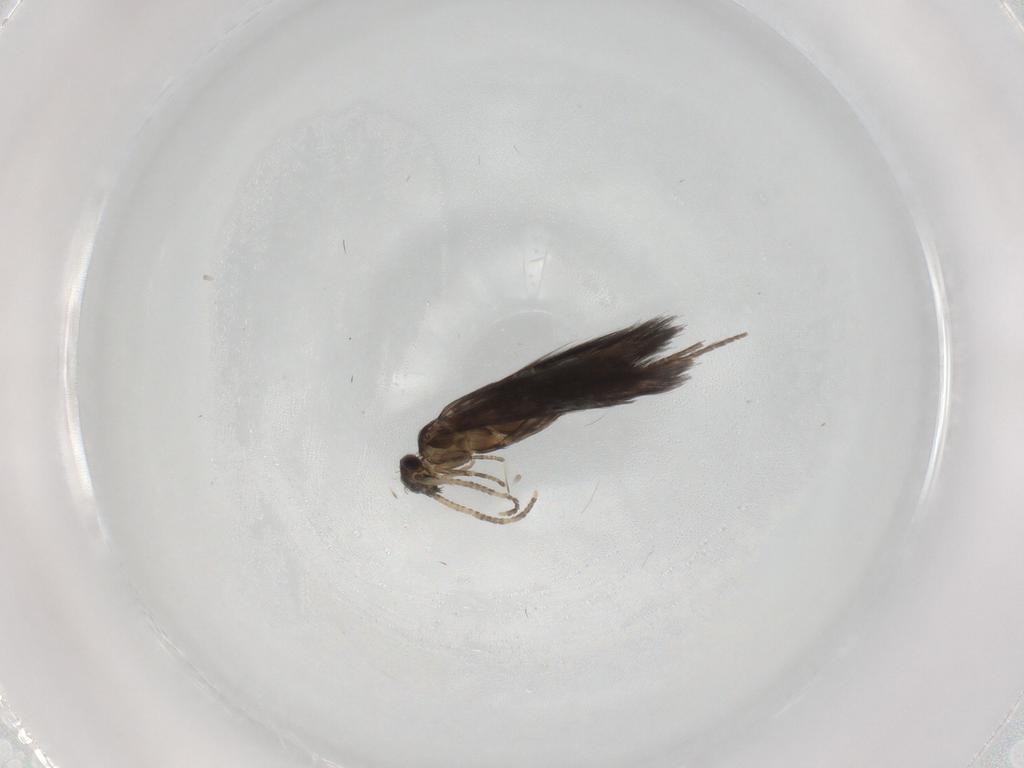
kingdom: Animalia
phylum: Arthropoda
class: Insecta
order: Trichoptera
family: Hydroptilidae
